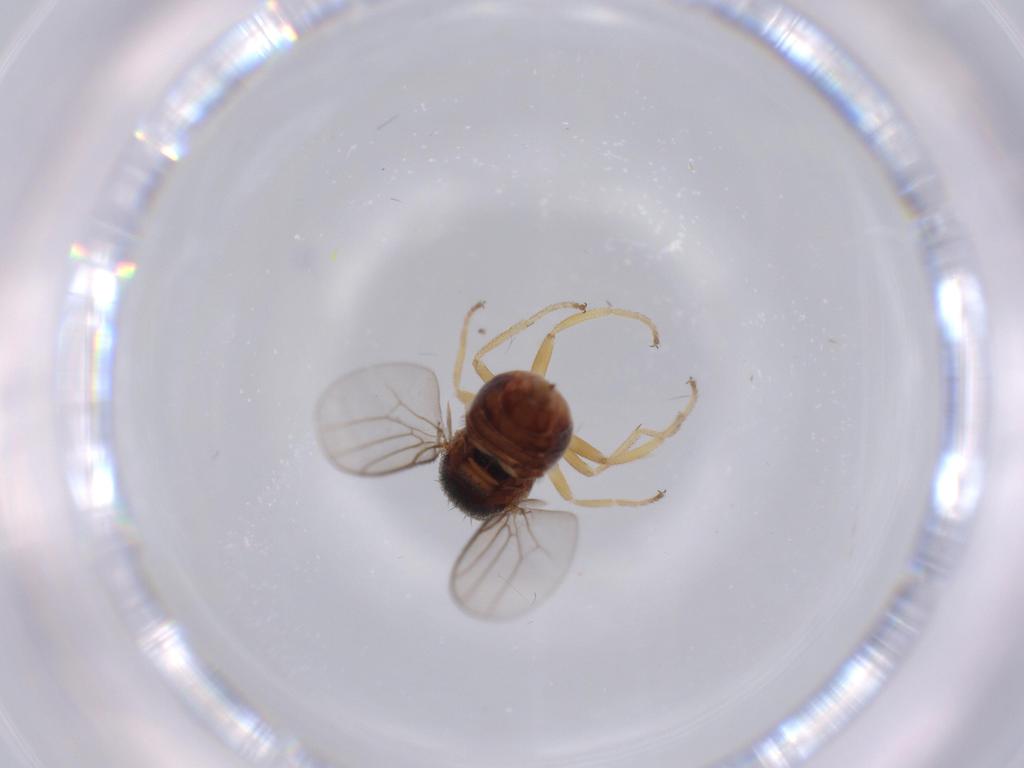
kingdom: Animalia
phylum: Arthropoda
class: Insecta
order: Diptera
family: Chloropidae
